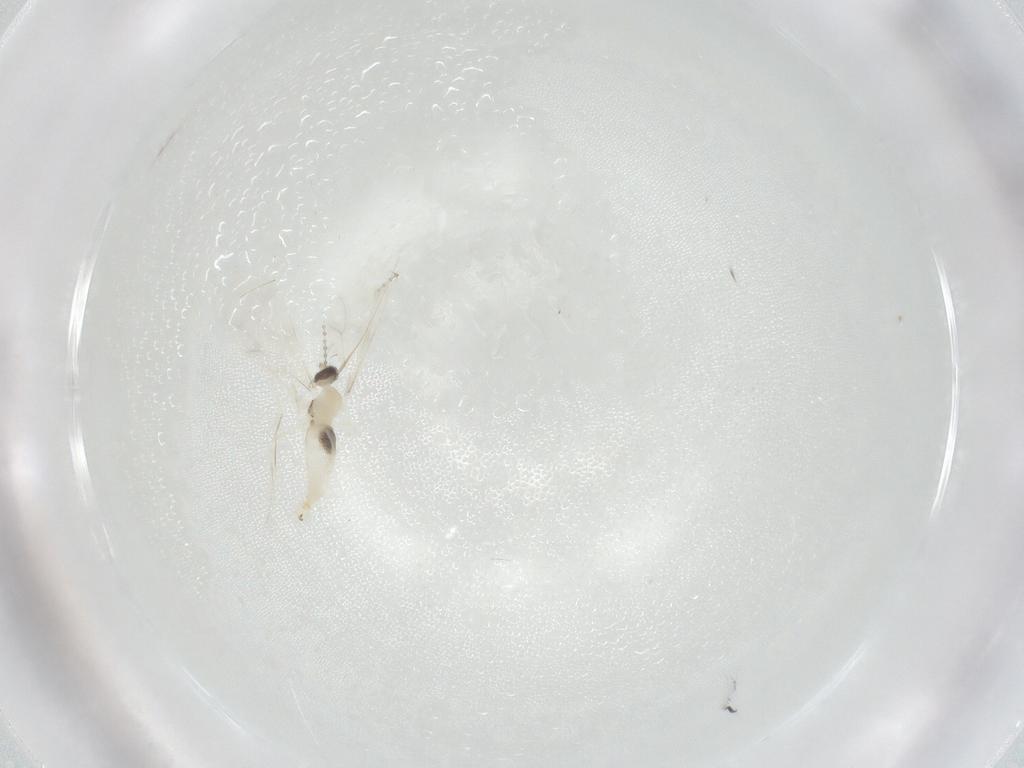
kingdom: Animalia
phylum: Arthropoda
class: Insecta
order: Diptera
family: Cecidomyiidae
